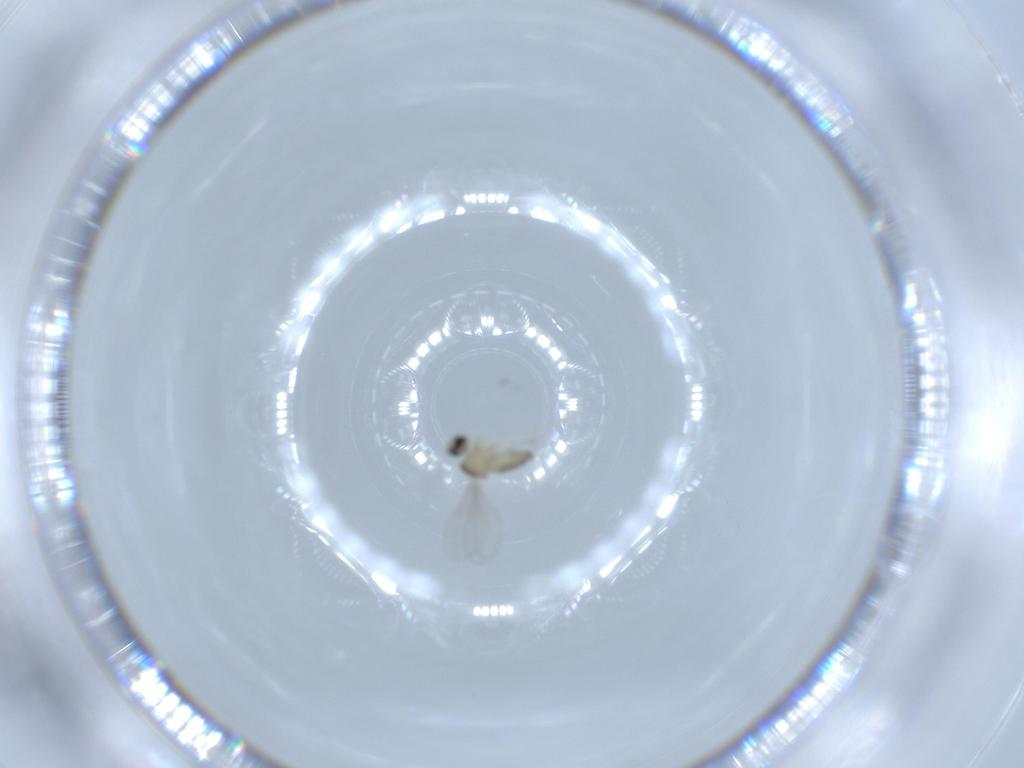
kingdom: Animalia
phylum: Arthropoda
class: Insecta
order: Diptera
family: Cecidomyiidae
